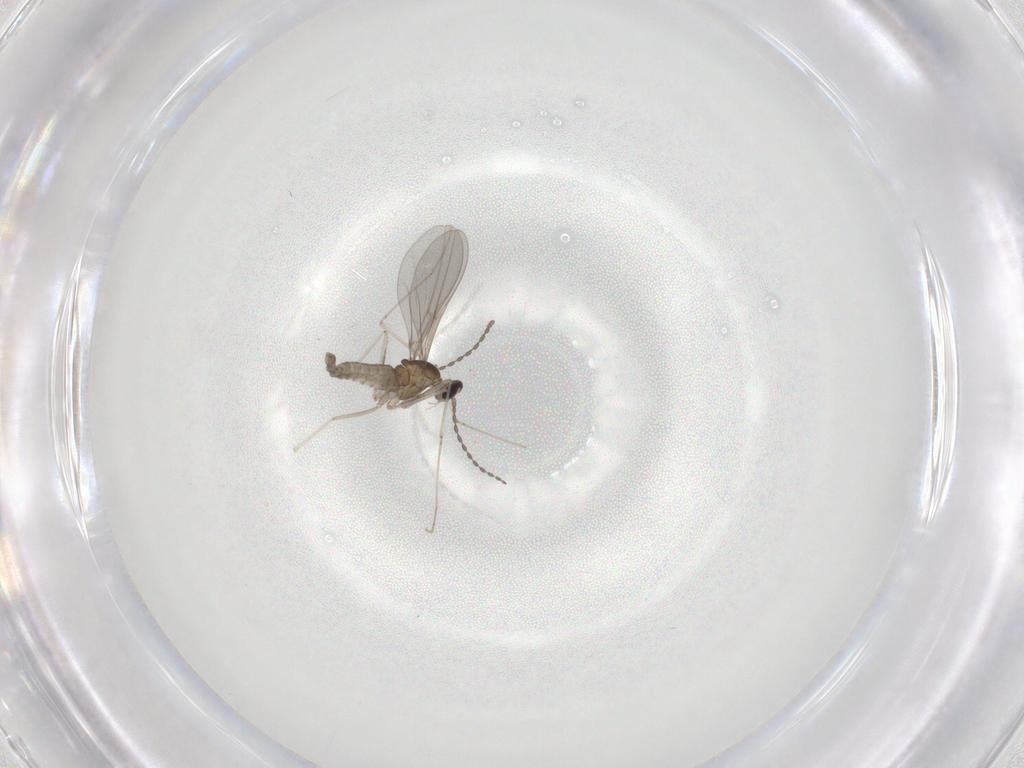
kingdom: Animalia
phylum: Arthropoda
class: Insecta
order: Diptera
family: Cecidomyiidae
